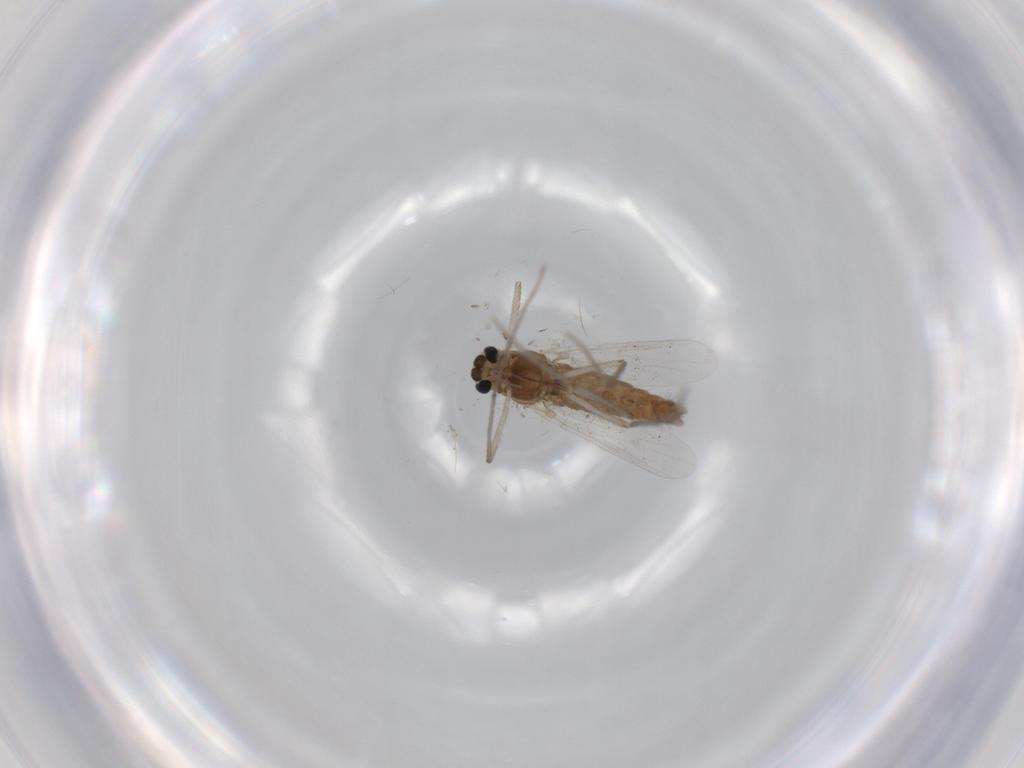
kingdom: Animalia
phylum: Arthropoda
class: Insecta
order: Diptera
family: Chironomidae
